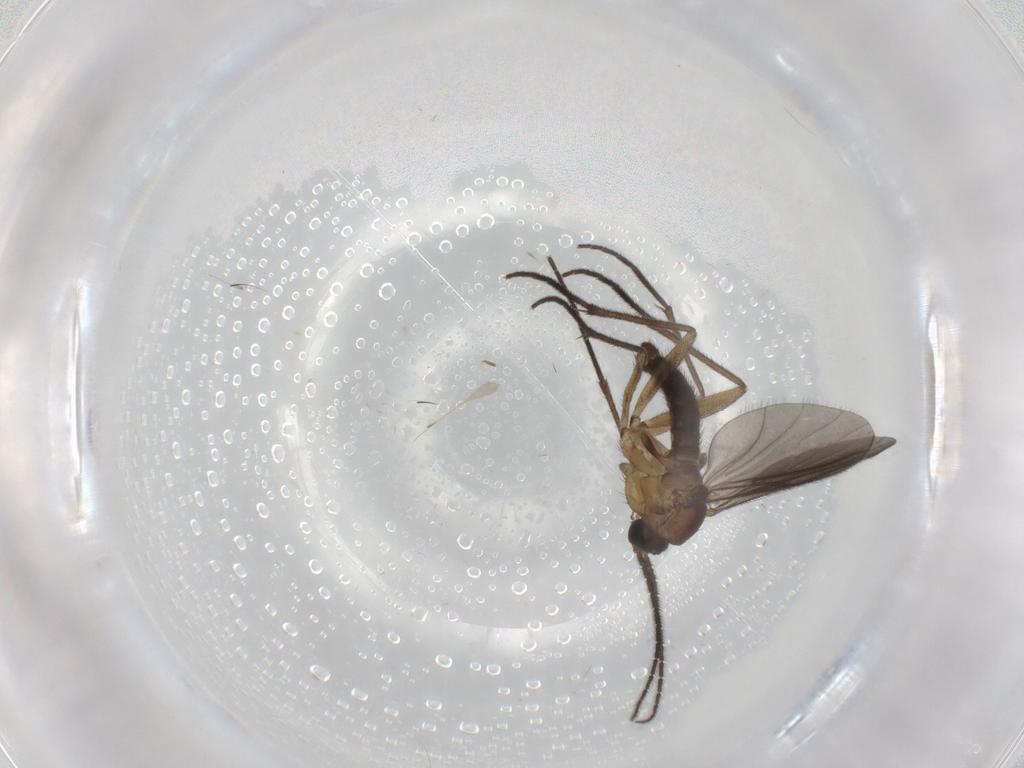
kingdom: Animalia
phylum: Arthropoda
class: Insecta
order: Diptera
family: Sciaridae
